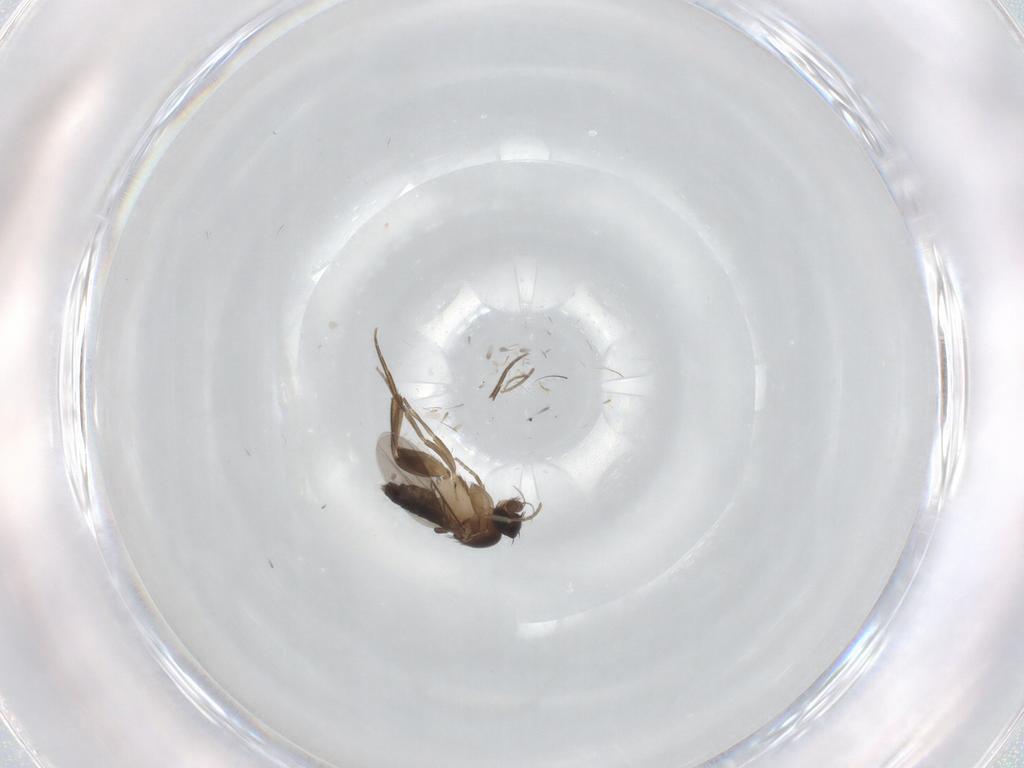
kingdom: Animalia
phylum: Arthropoda
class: Insecta
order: Diptera
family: Phoridae
